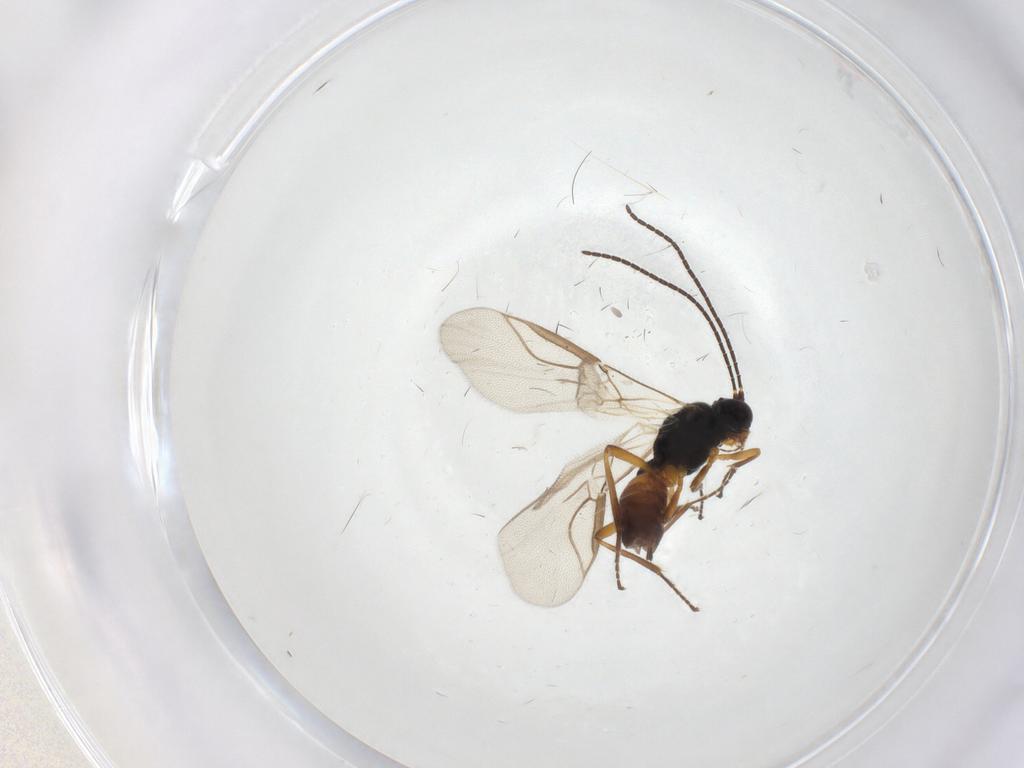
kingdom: Animalia
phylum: Arthropoda
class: Insecta
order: Hymenoptera
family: Braconidae
